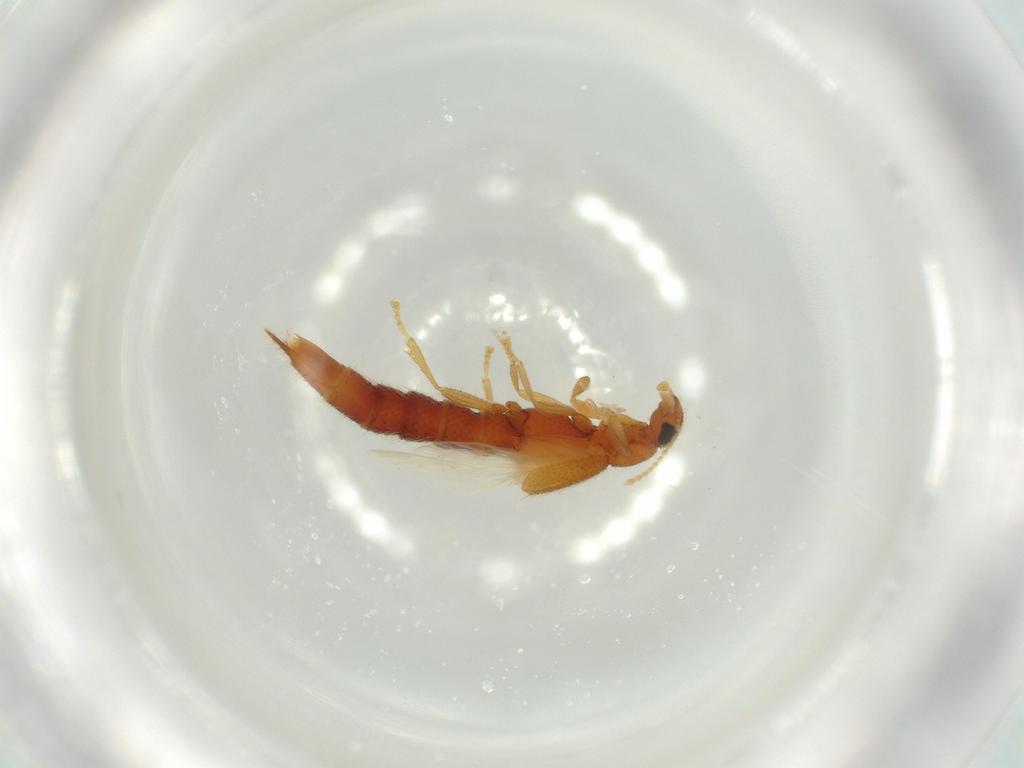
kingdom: Animalia
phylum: Arthropoda
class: Insecta
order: Coleoptera
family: Staphylinidae
